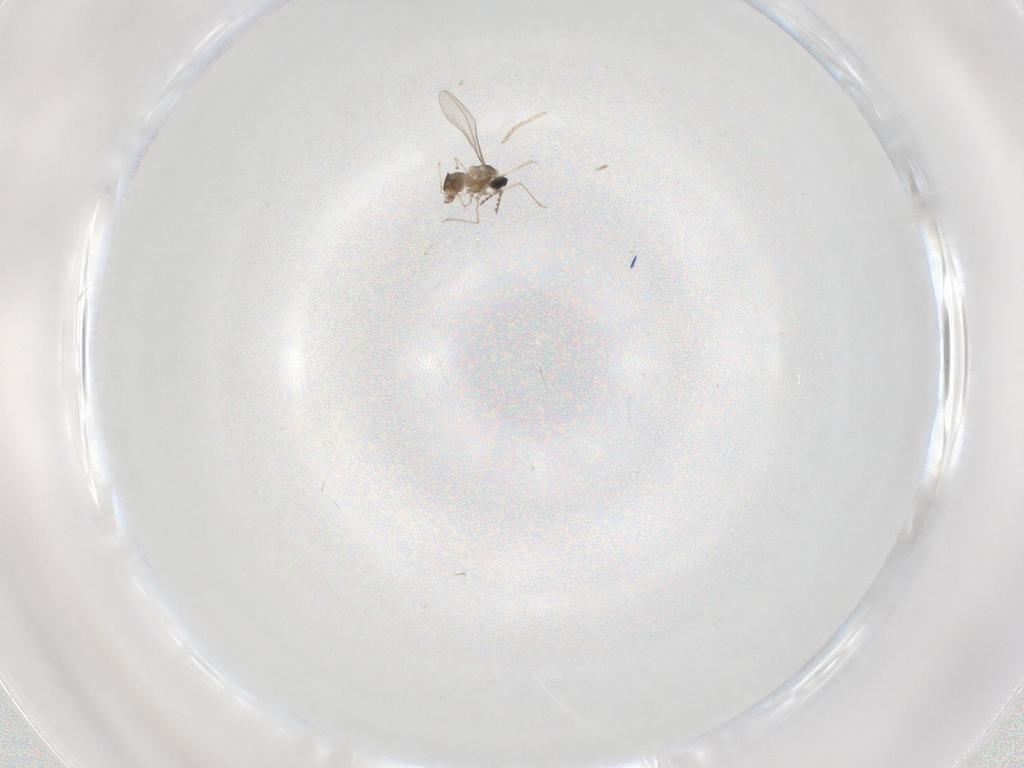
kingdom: Animalia
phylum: Arthropoda
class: Insecta
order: Diptera
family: Cecidomyiidae
